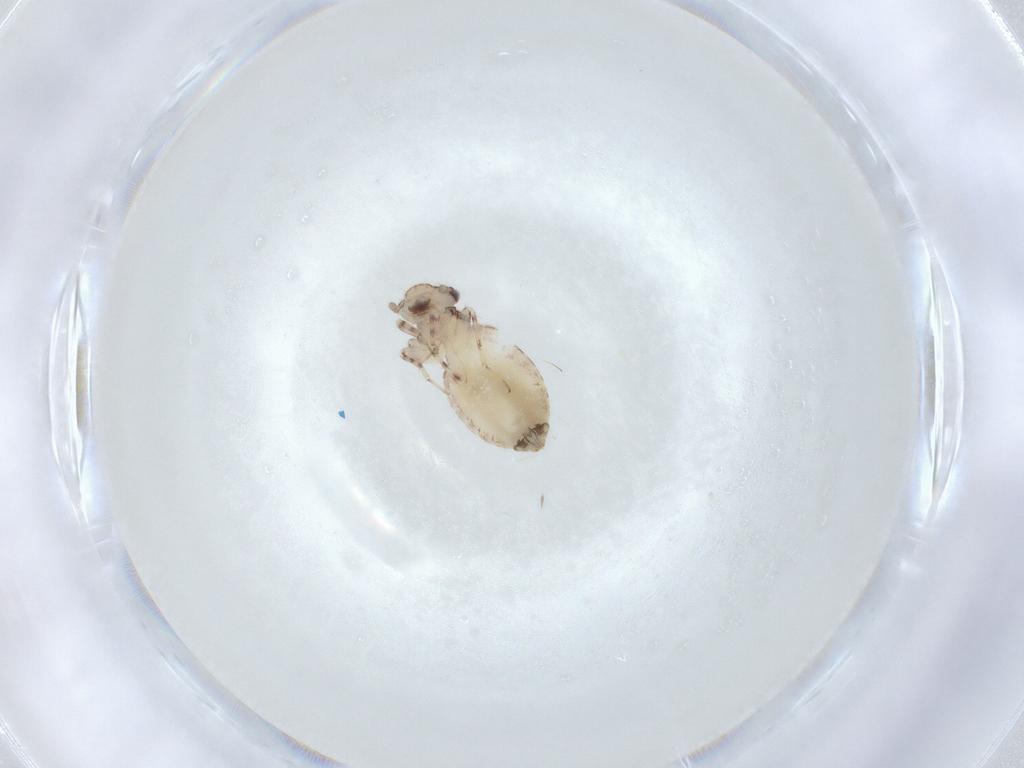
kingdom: Animalia
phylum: Arthropoda
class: Insecta
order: Psocodea
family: Trogiidae
